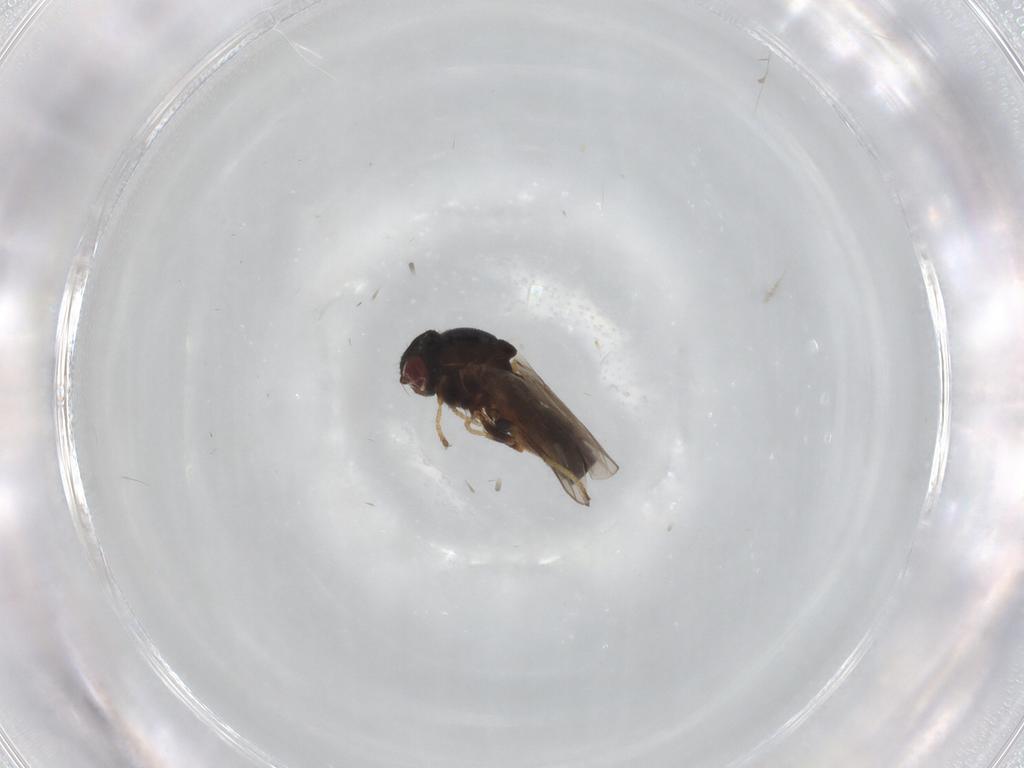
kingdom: Animalia
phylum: Arthropoda
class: Insecta
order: Diptera
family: Chloropidae
